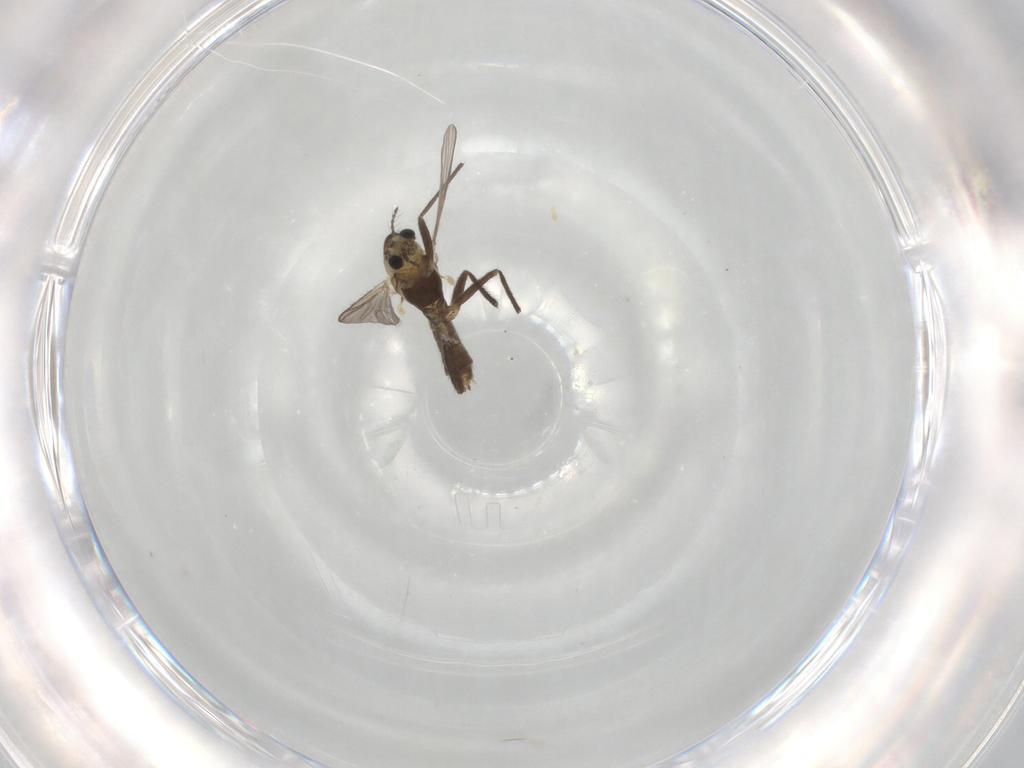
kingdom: Animalia
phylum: Arthropoda
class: Insecta
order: Diptera
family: Chironomidae
